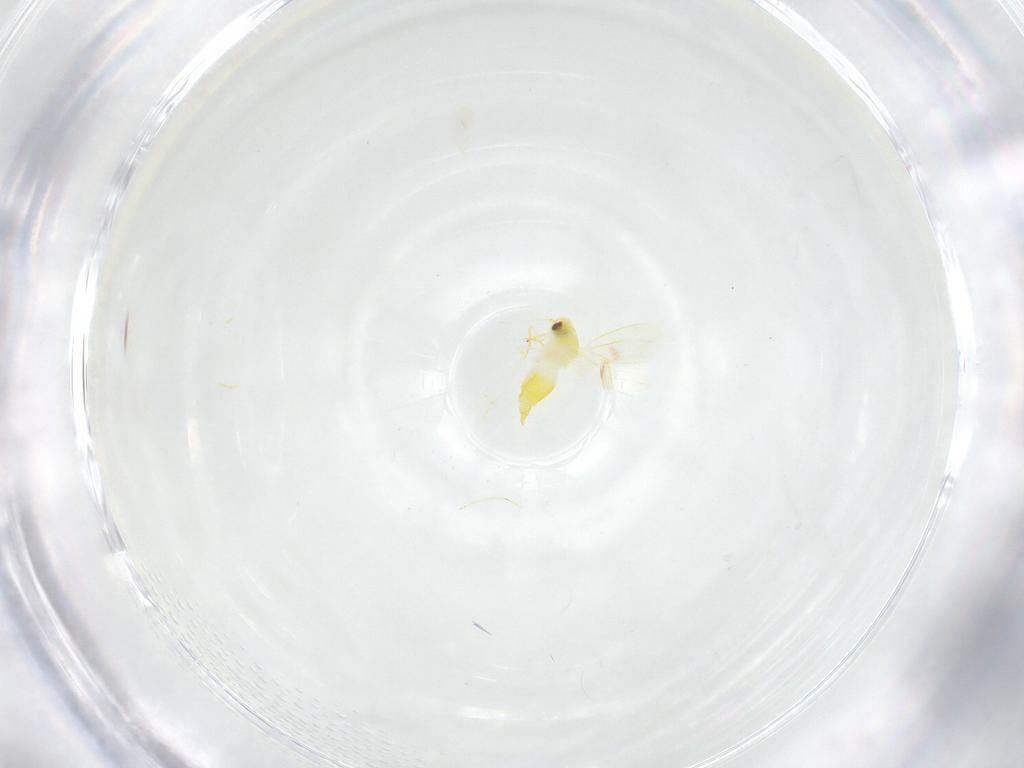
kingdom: Animalia
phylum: Arthropoda
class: Insecta
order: Hemiptera
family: Aleyrodidae
